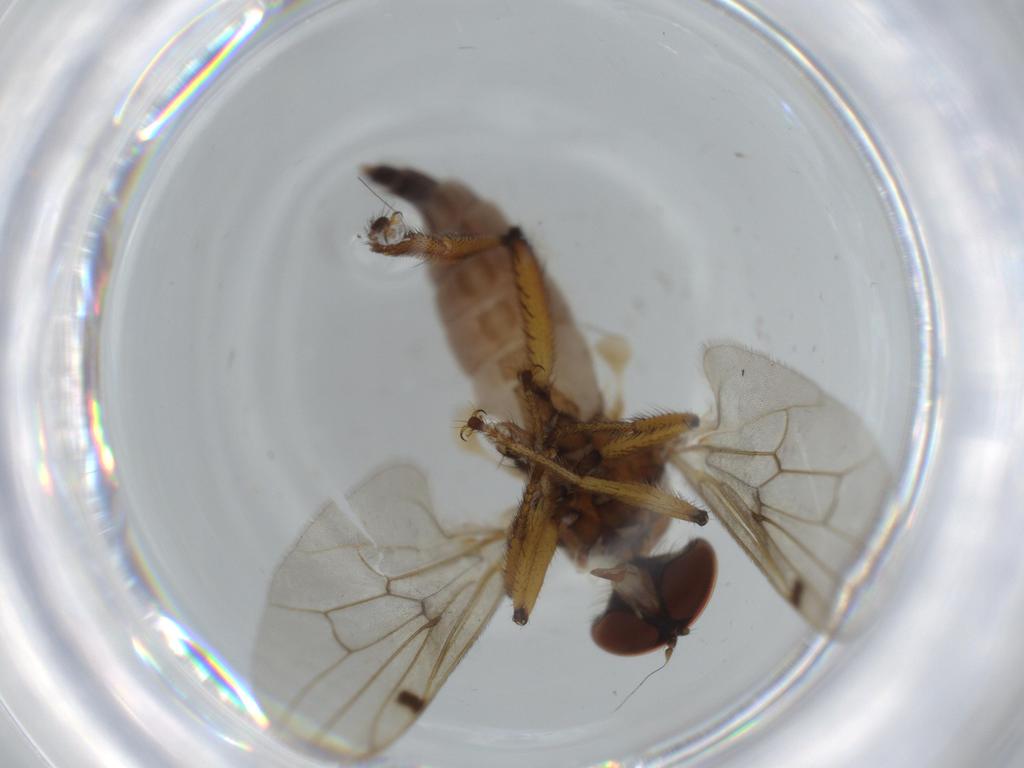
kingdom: Animalia
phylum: Arthropoda
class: Insecta
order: Diptera
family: Hybotidae
